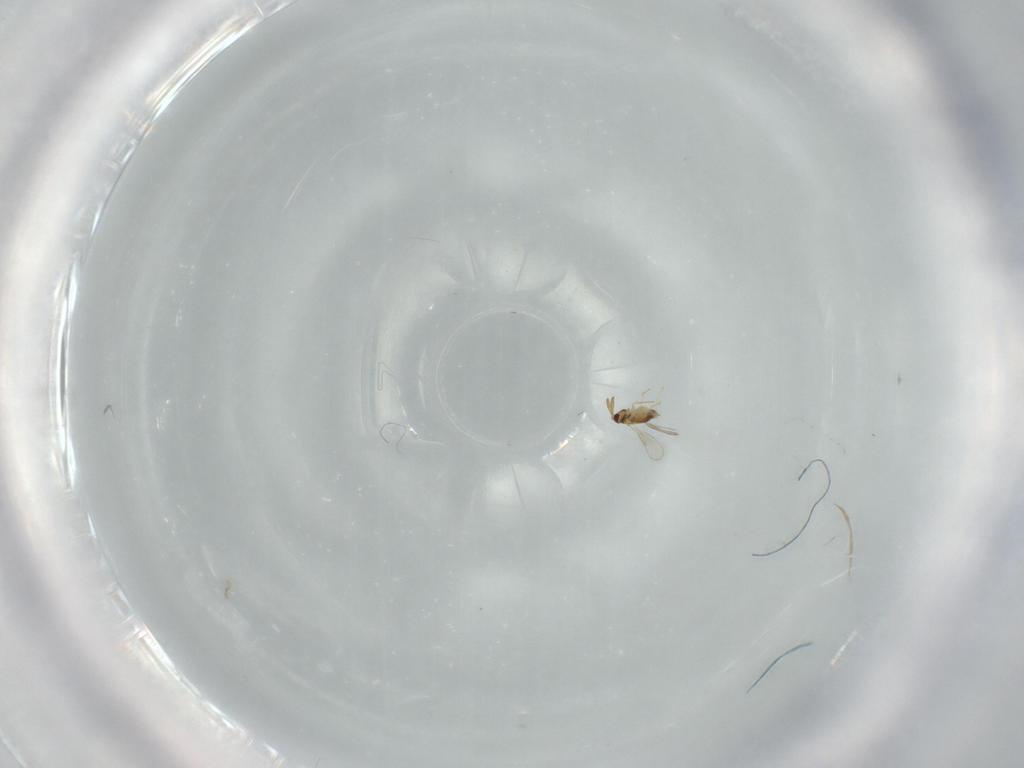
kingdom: Animalia
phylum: Arthropoda
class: Insecta
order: Hymenoptera
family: Aphelinidae
